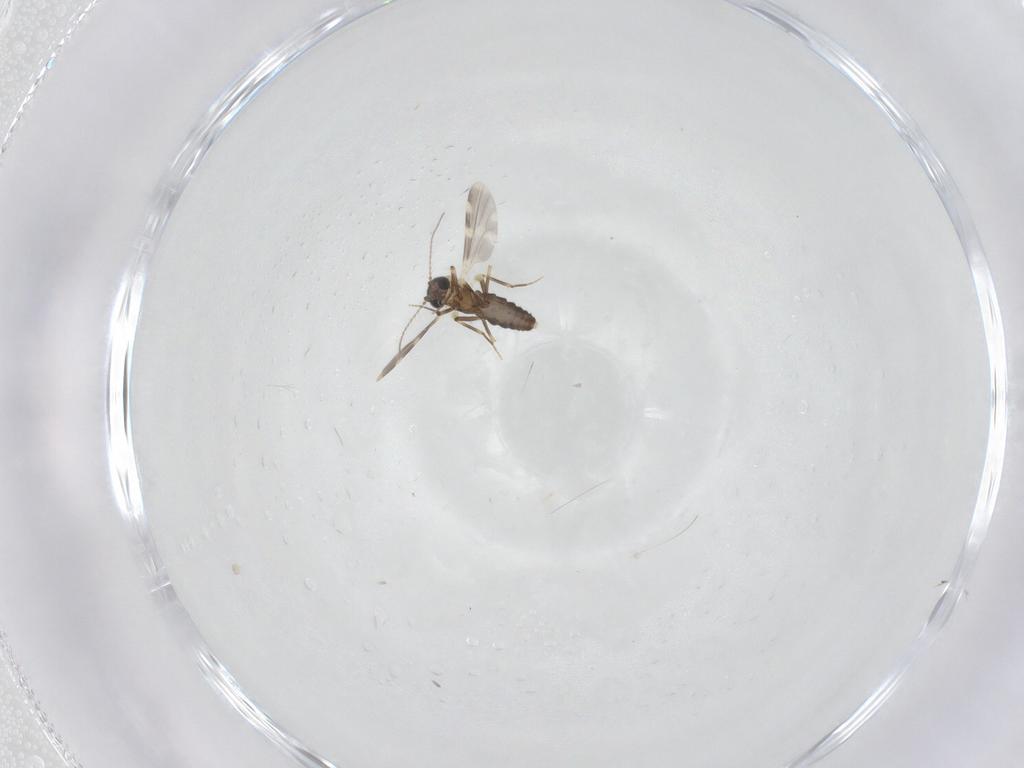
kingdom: Animalia
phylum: Arthropoda
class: Insecta
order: Diptera
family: Ceratopogonidae
